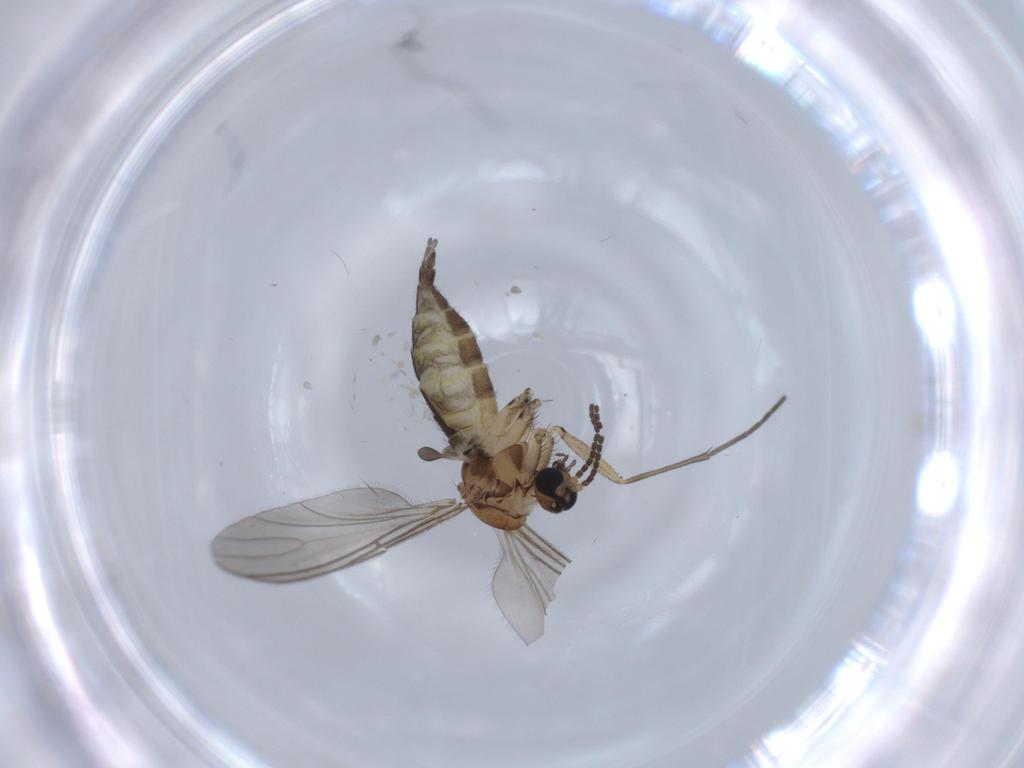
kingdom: Animalia
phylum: Arthropoda
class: Insecta
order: Diptera
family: Sciaridae
